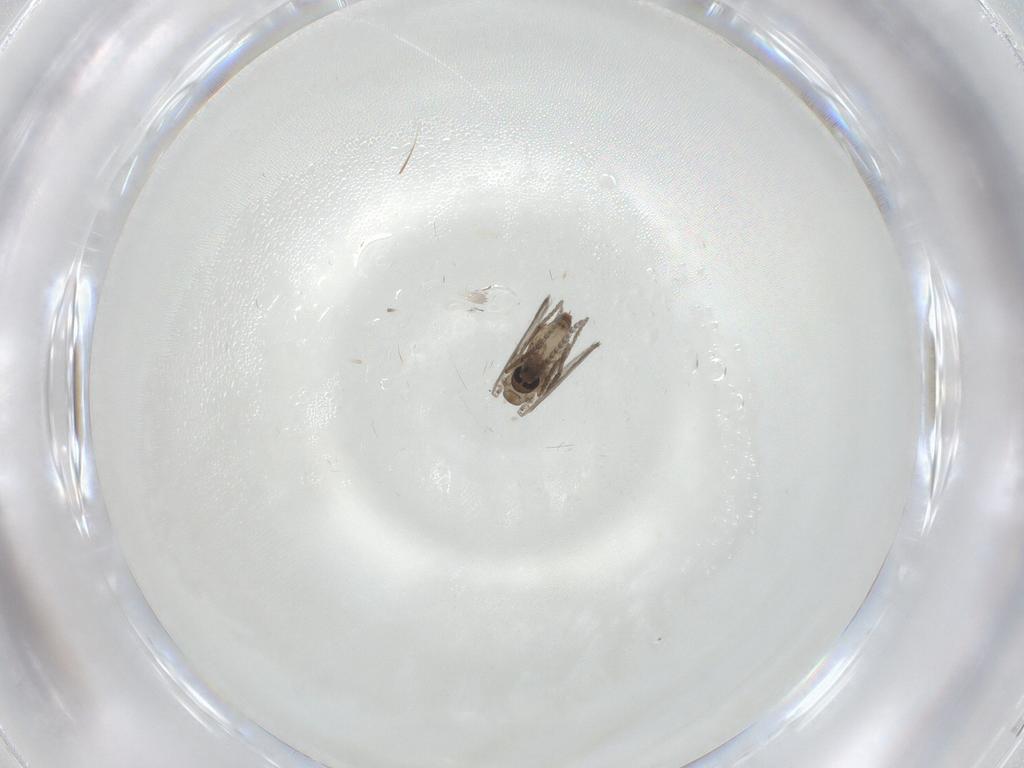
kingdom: Animalia
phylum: Arthropoda
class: Insecta
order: Diptera
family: Psychodidae
